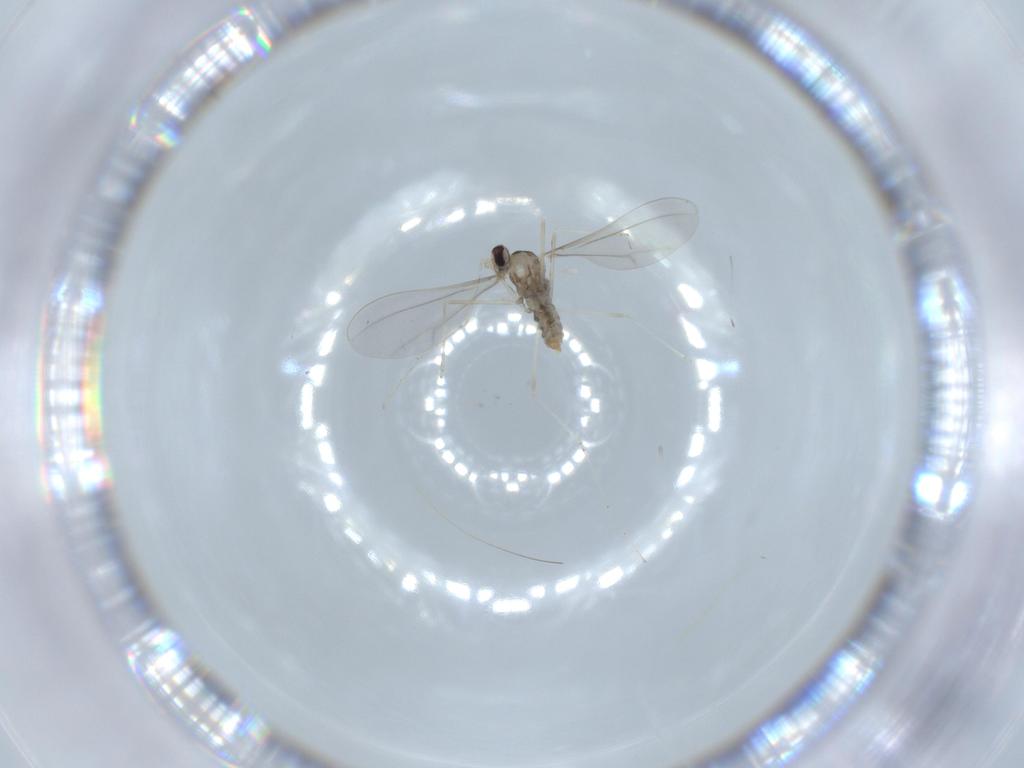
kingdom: Animalia
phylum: Arthropoda
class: Insecta
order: Diptera
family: Cecidomyiidae
